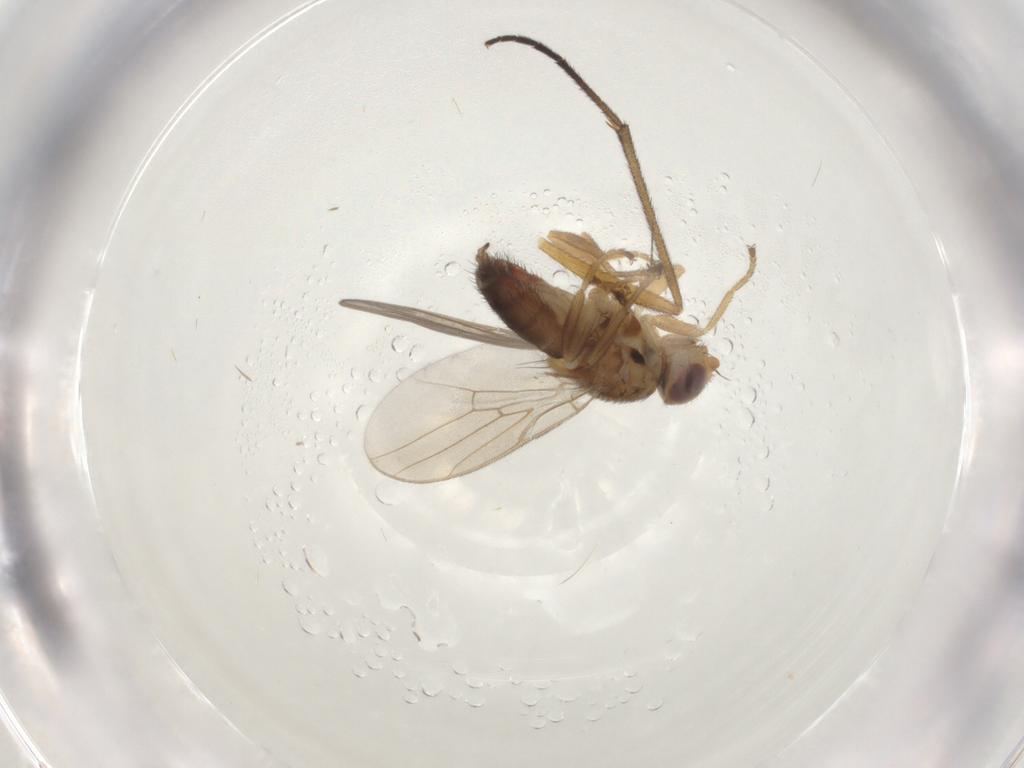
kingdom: Animalia
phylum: Arthropoda
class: Insecta
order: Diptera
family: Chloropidae
